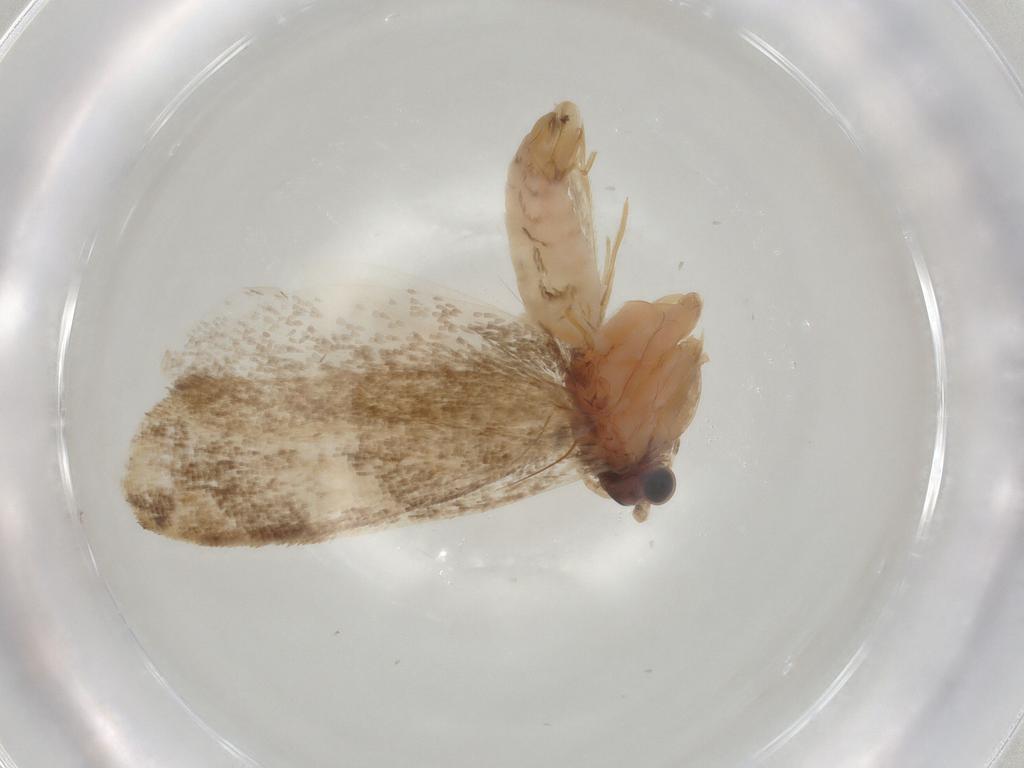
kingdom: Animalia
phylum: Arthropoda
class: Insecta
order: Lepidoptera
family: Tineidae
